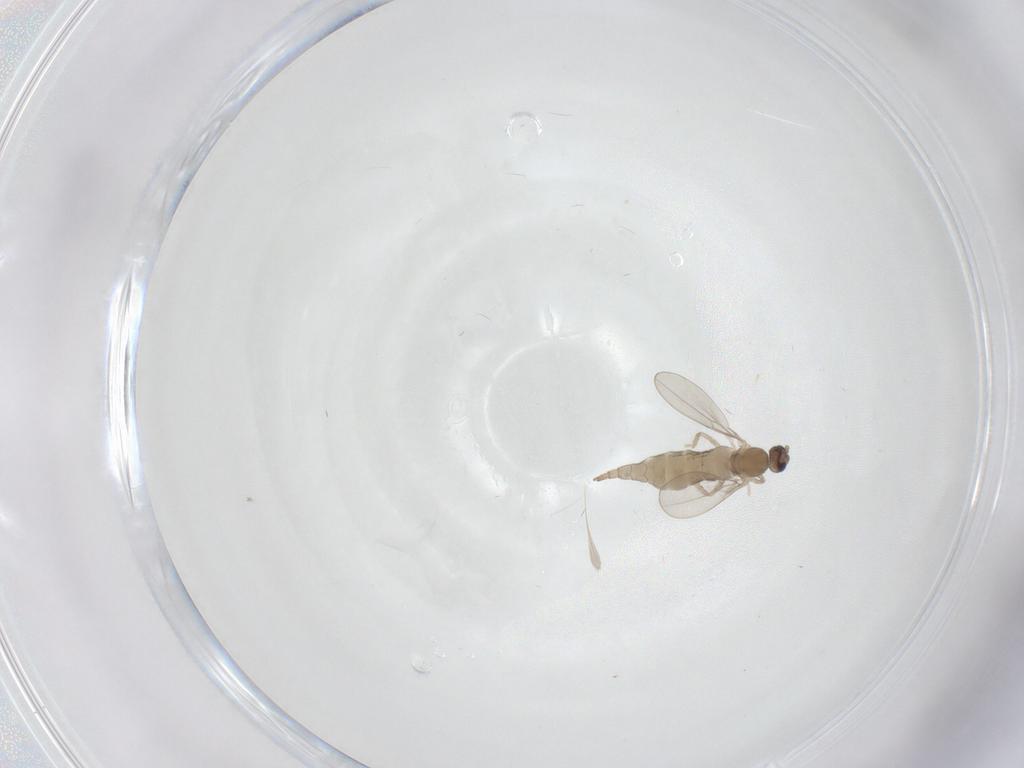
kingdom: Animalia
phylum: Arthropoda
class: Insecta
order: Diptera
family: Cecidomyiidae
